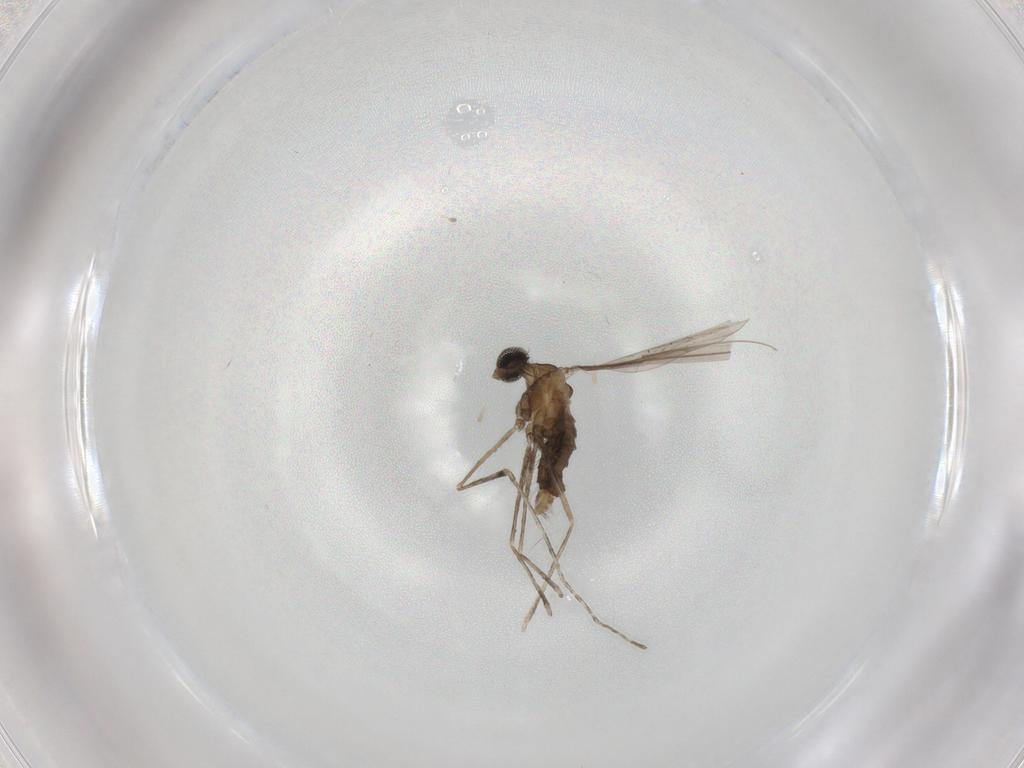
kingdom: Animalia
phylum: Arthropoda
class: Insecta
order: Diptera
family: Cecidomyiidae
